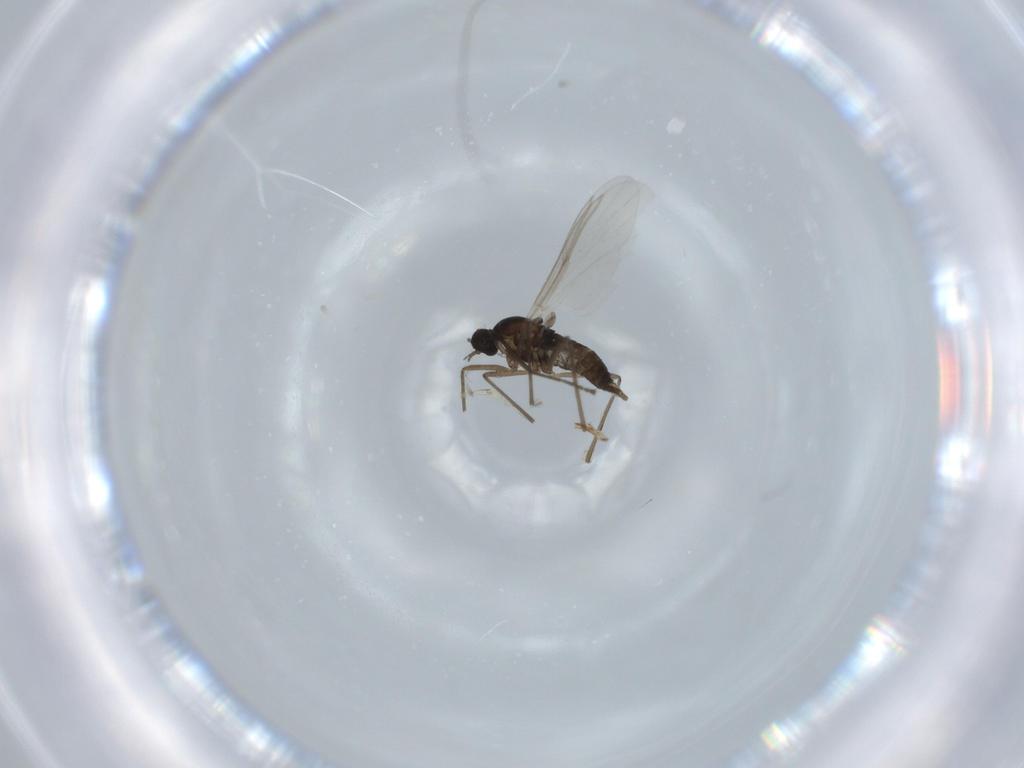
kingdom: Animalia
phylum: Arthropoda
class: Insecta
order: Diptera
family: Cecidomyiidae
